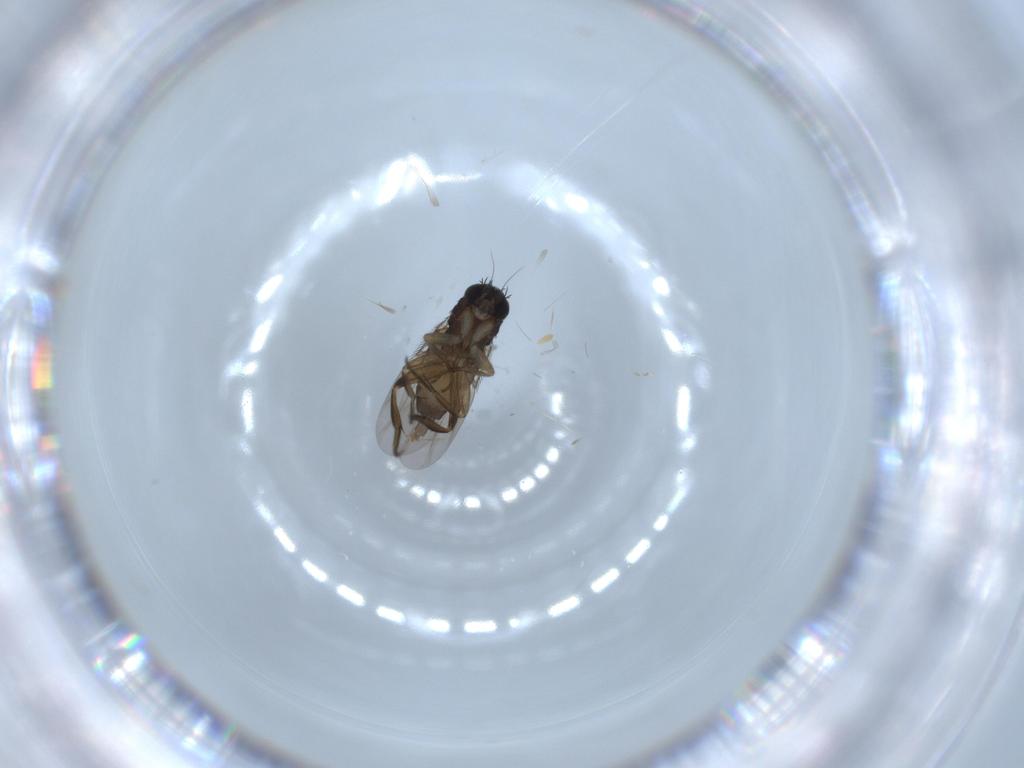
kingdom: Animalia
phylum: Arthropoda
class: Insecta
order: Diptera
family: Phoridae
